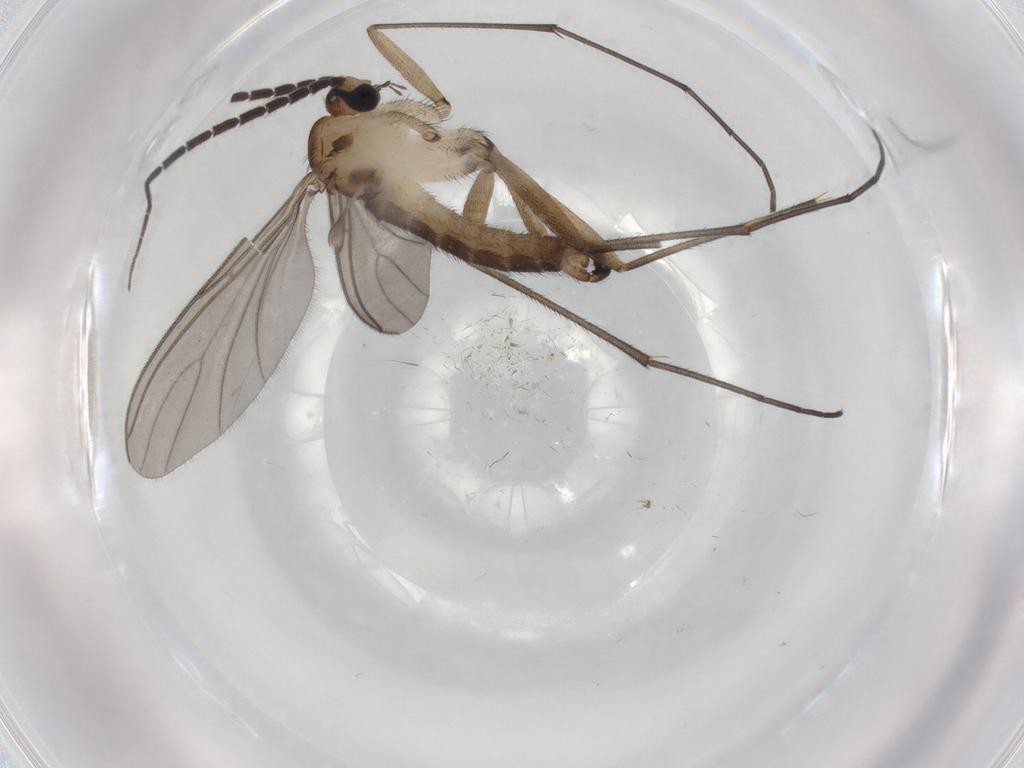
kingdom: Animalia
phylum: Arthropoda
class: Insecta
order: Diptera
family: Sciaridae
